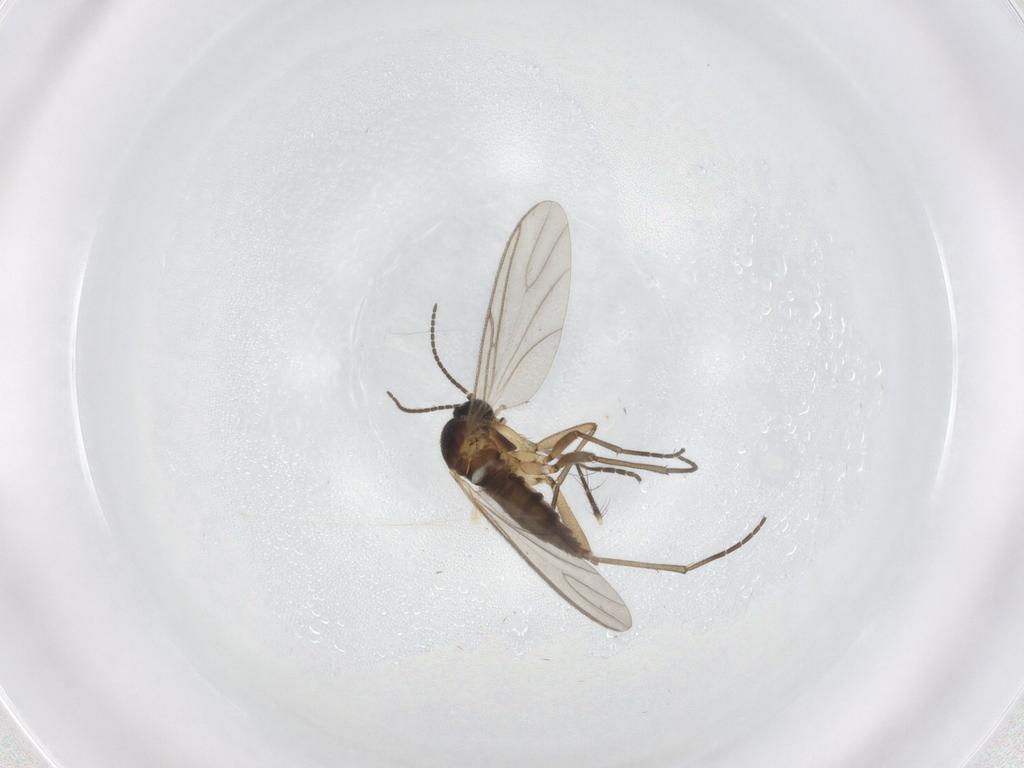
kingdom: Animalia
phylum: Arthropoda
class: Insecta
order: Diptera
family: Culicidae
